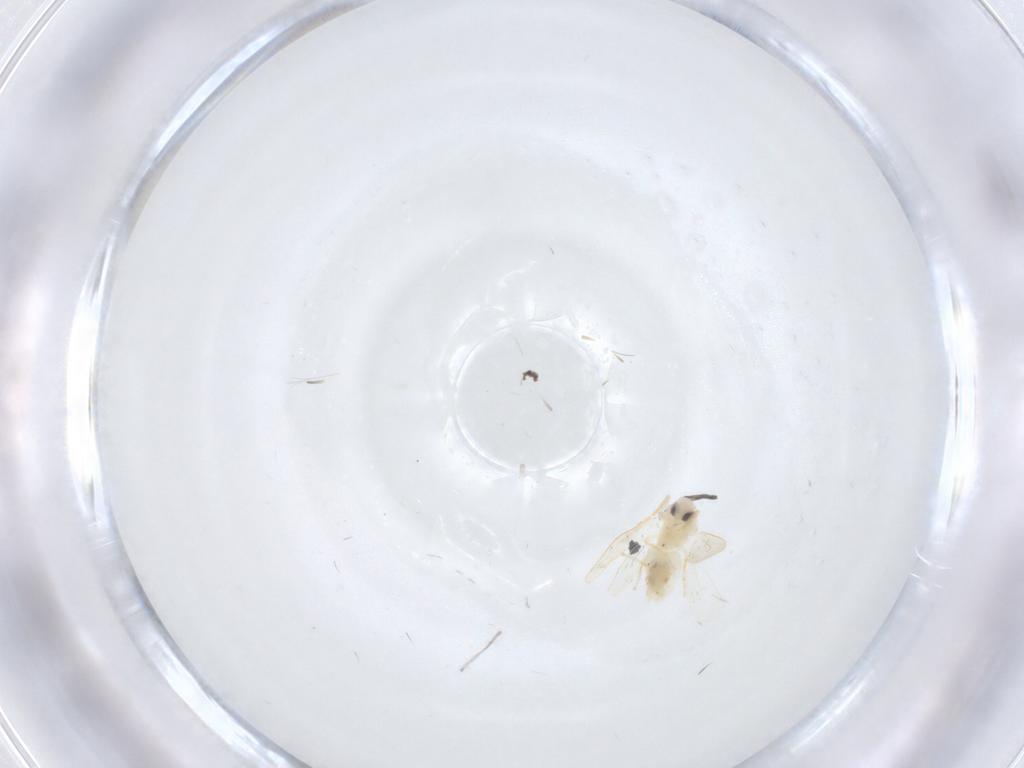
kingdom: Animalia
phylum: Arthropoda
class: Insecta
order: Hemiptera
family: Aleyrodidae
